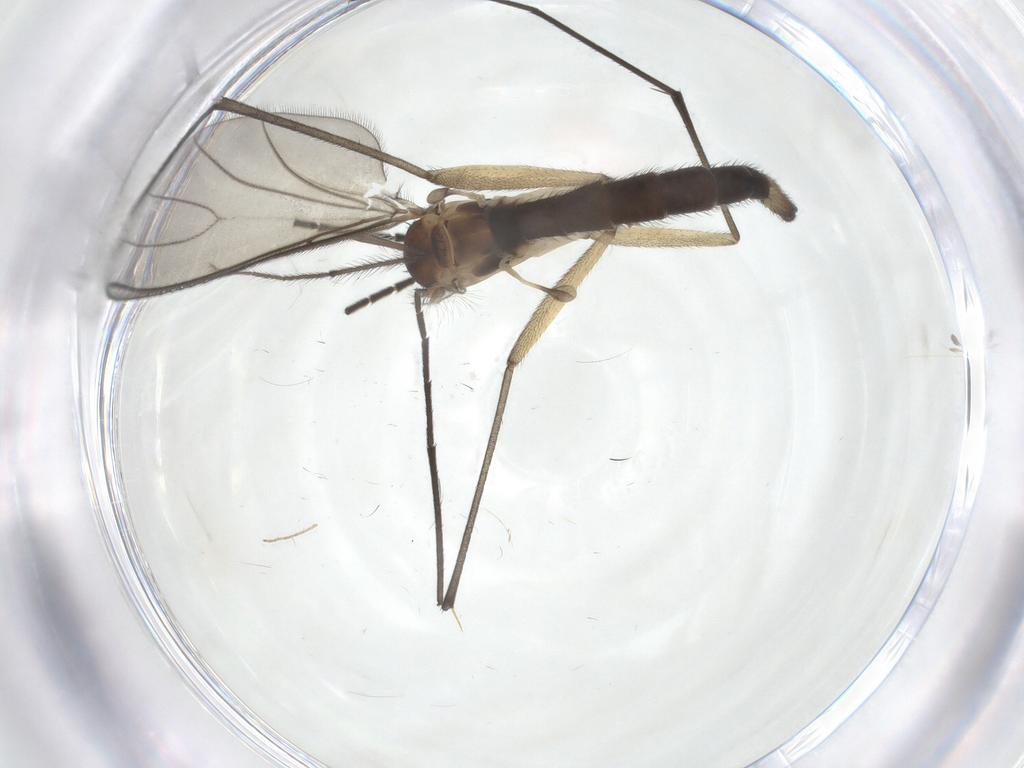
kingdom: Animalia
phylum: Arthropoda
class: Insecta
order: Diptera
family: Sciaridae
